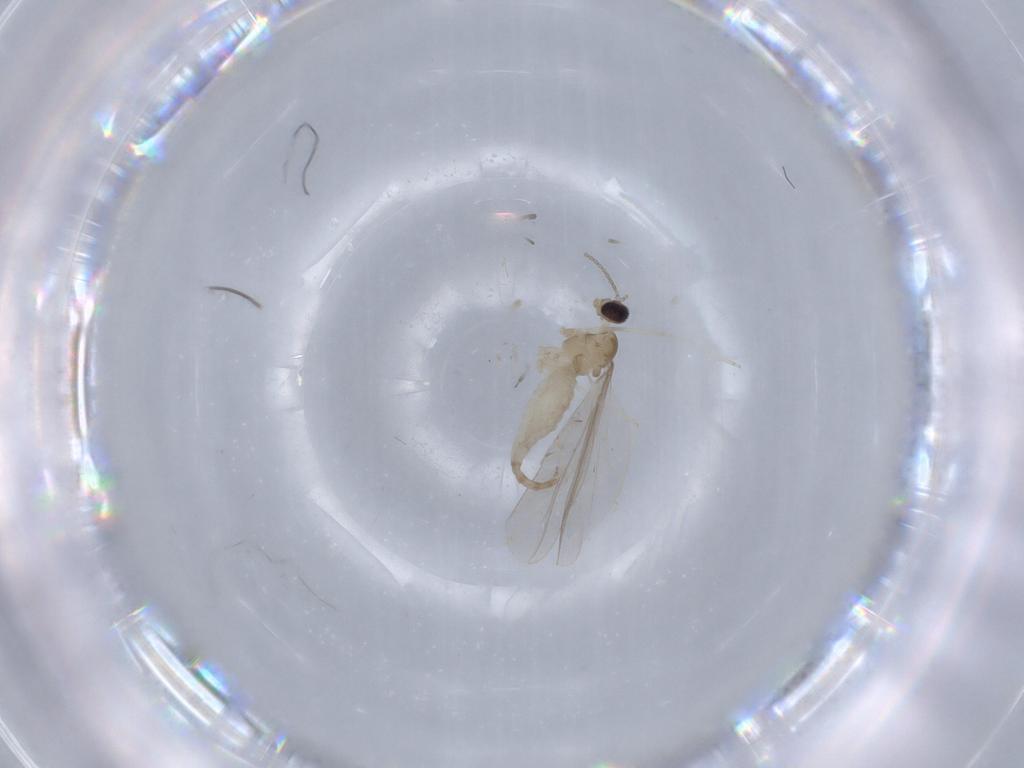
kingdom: Animalia
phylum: Arthropoda
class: Insecta
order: Diptera
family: Cecidomyiidae
